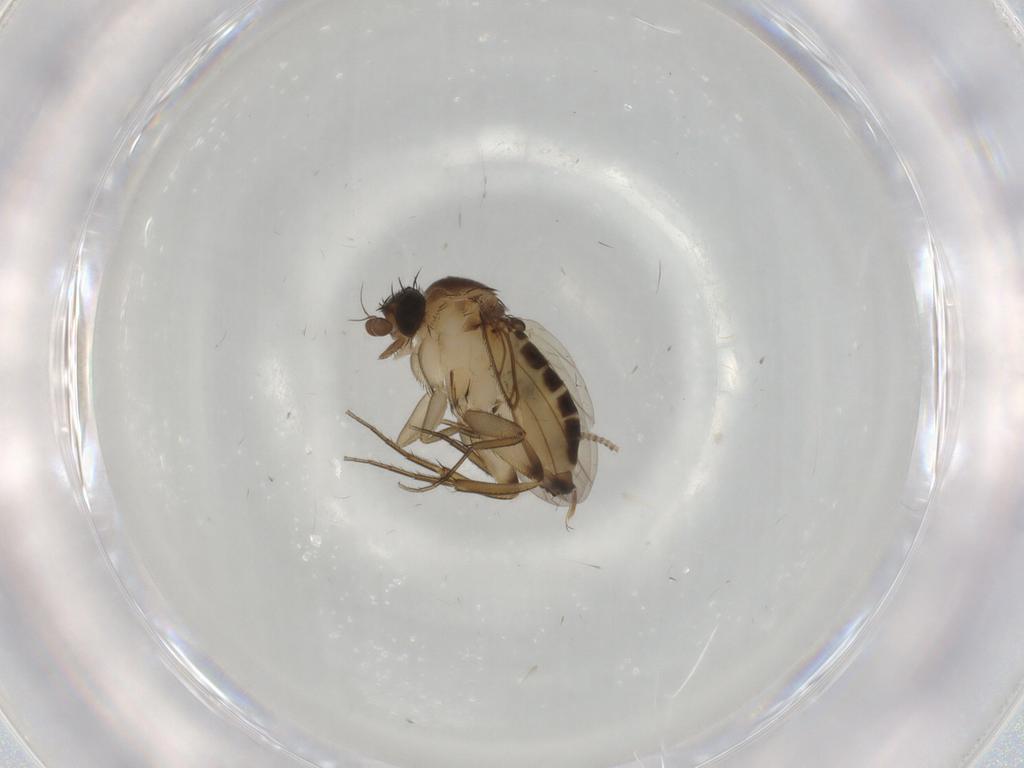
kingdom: Animalia
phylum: Arthropoda
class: Insecta
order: Diptera
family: Phoridae
